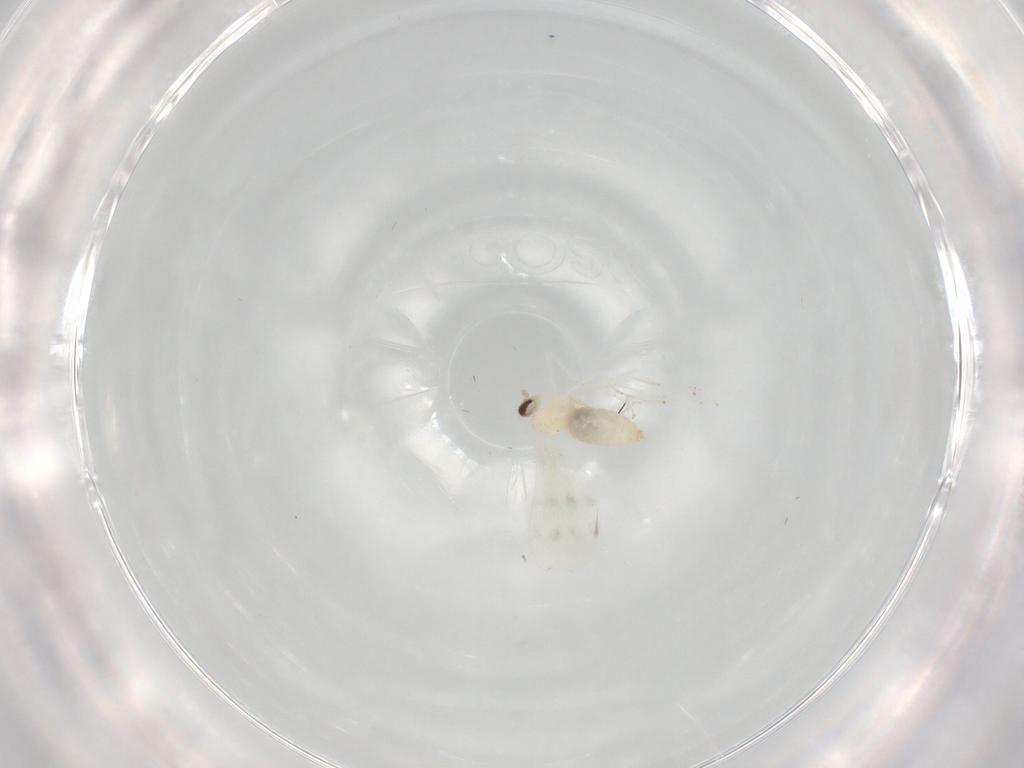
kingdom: Animalia
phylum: Arthropoda
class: Insecta
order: Diptera
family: Cecidomyiidae
